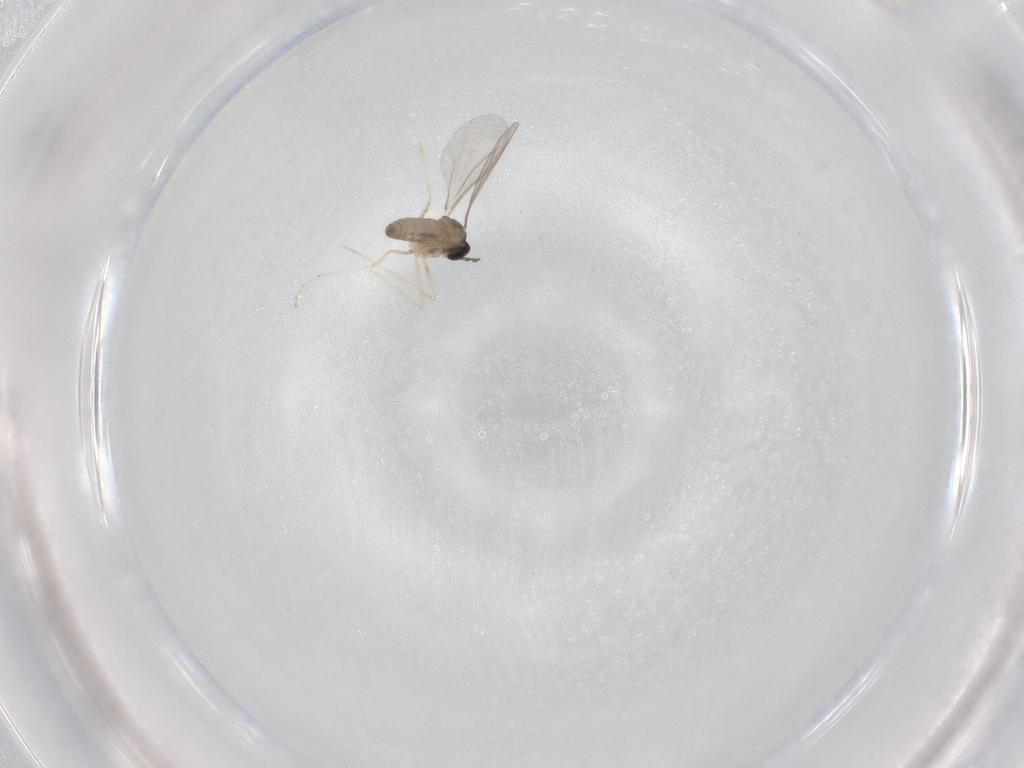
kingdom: Animalia
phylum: Arthropoda
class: Insecta
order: Diptera
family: Cecidomyiidae
